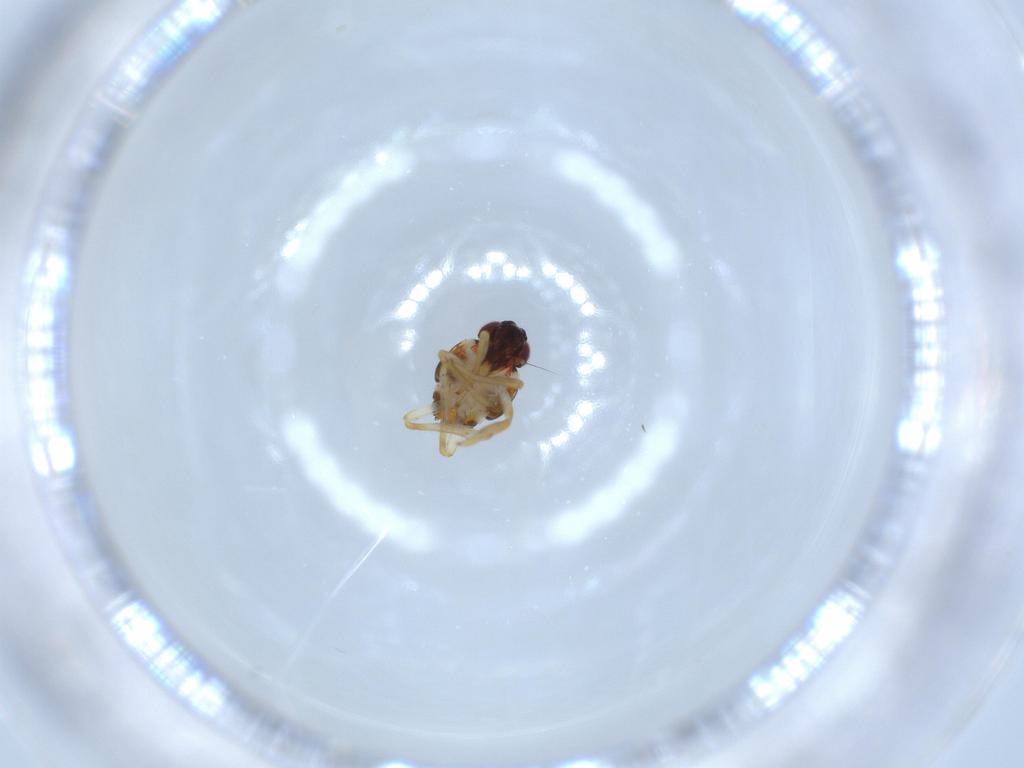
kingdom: Animalia
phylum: Arthropoda
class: Insecta
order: Hemiptera
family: Issidae
